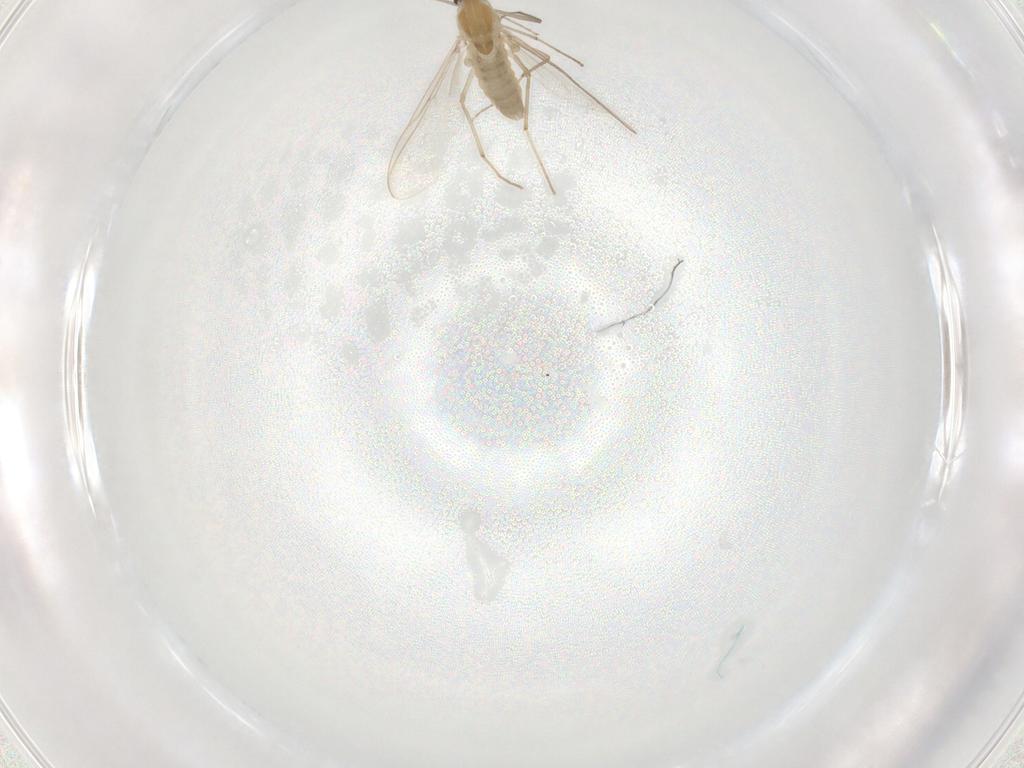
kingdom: Animalia
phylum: Arthropoda
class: Insecta
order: Diptera
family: Chironomidae
